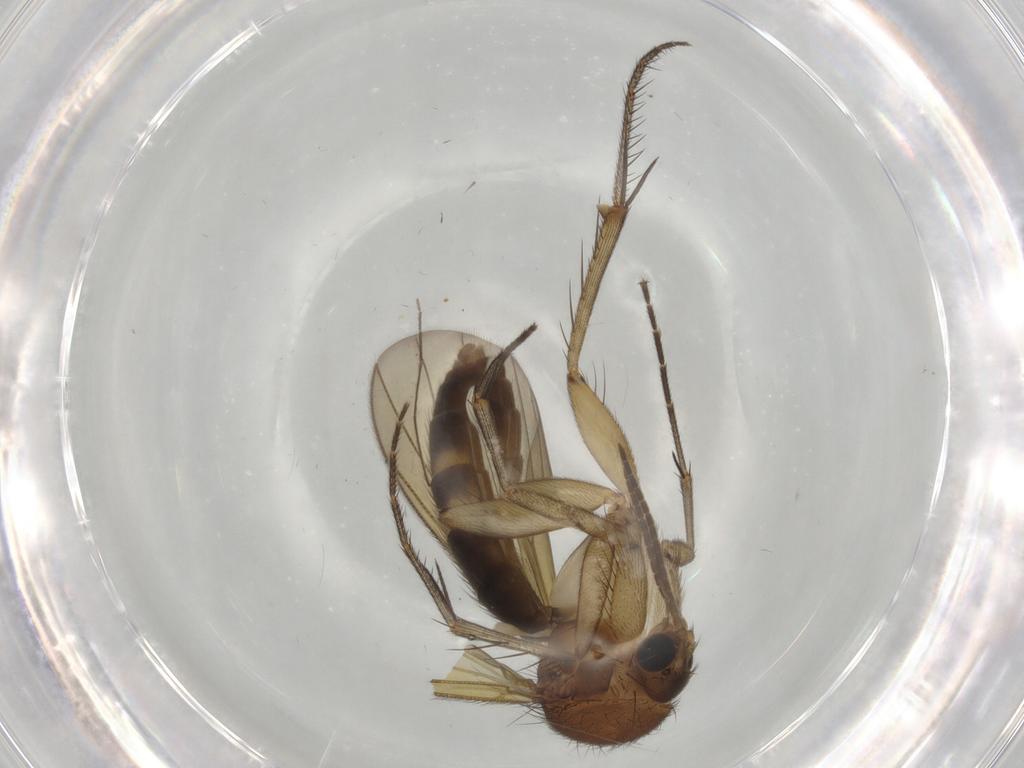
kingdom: Animalia
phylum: Arthropoda
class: Insecta
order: Diptera
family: Mycetophilidae
